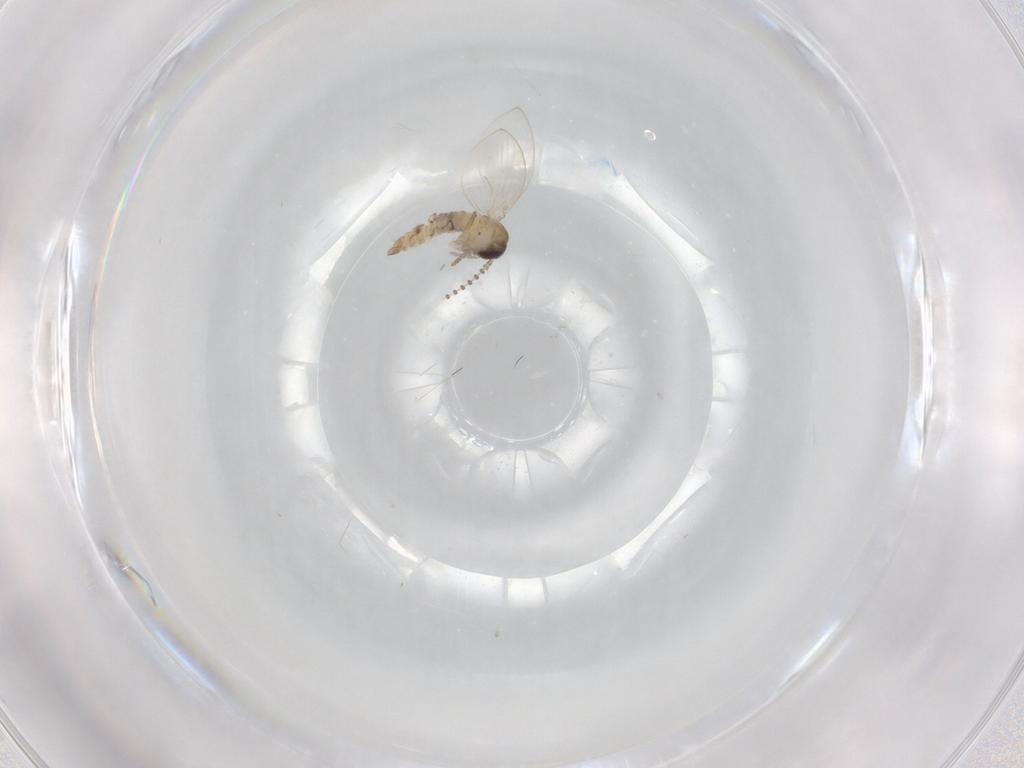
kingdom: Animalia
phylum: Arthropoda
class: Insecta
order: Diptera
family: Psychodidae
